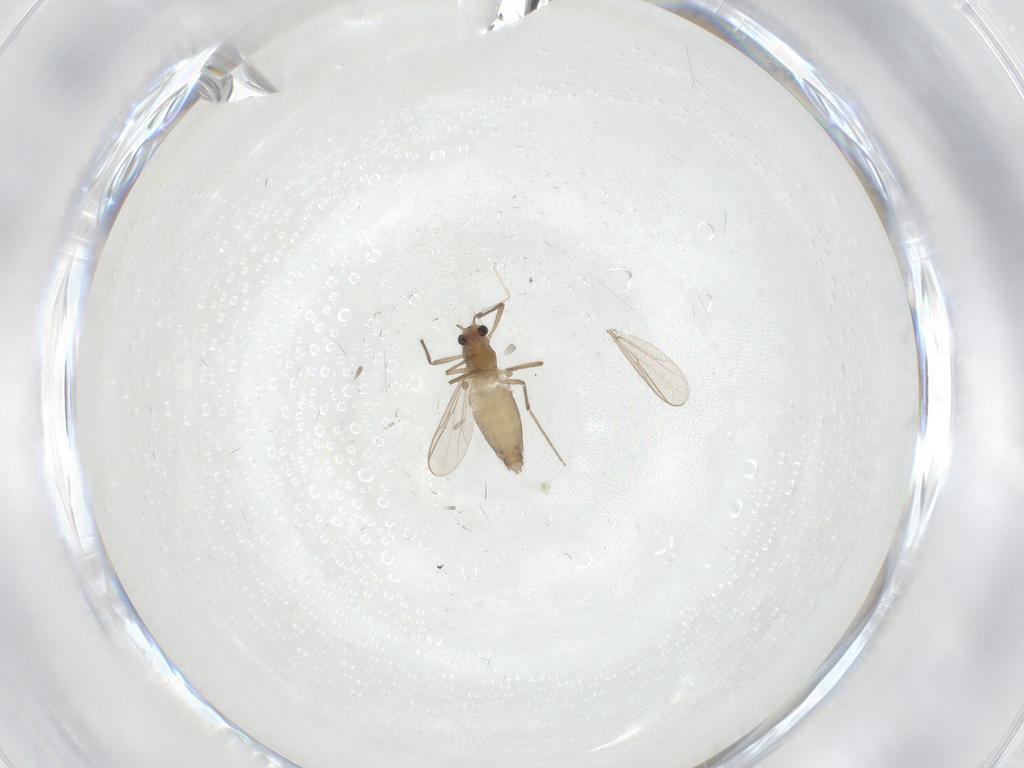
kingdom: Animalia
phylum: Arthropoda
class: Insecta
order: Diptera
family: Chironomidae
